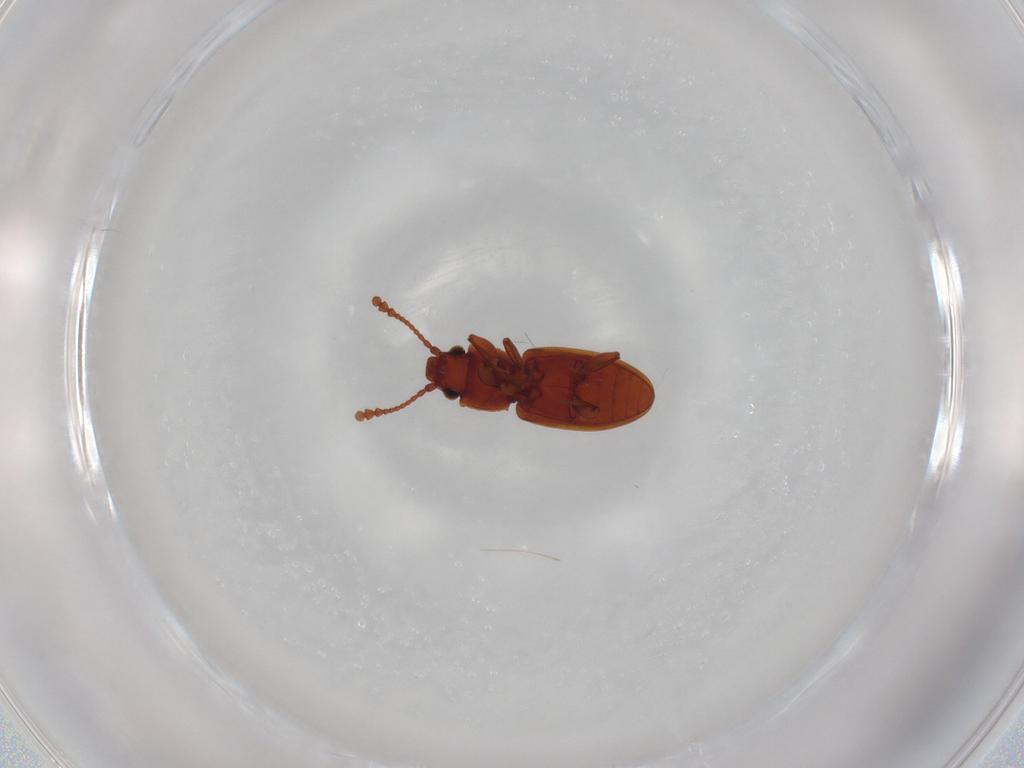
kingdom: Animalia
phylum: Arthropoda
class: Insecta
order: Coleoptera
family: Silvanidae
